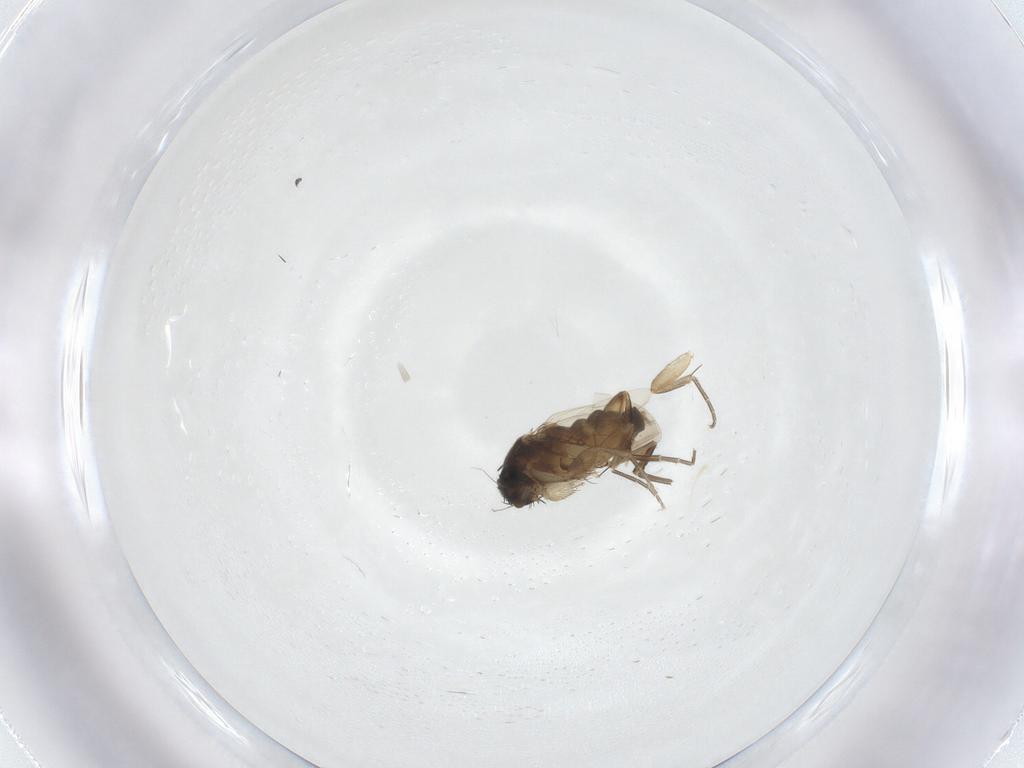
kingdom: Animalia
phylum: Arthropoda
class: Insecta
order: Diptera
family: Phoridae
